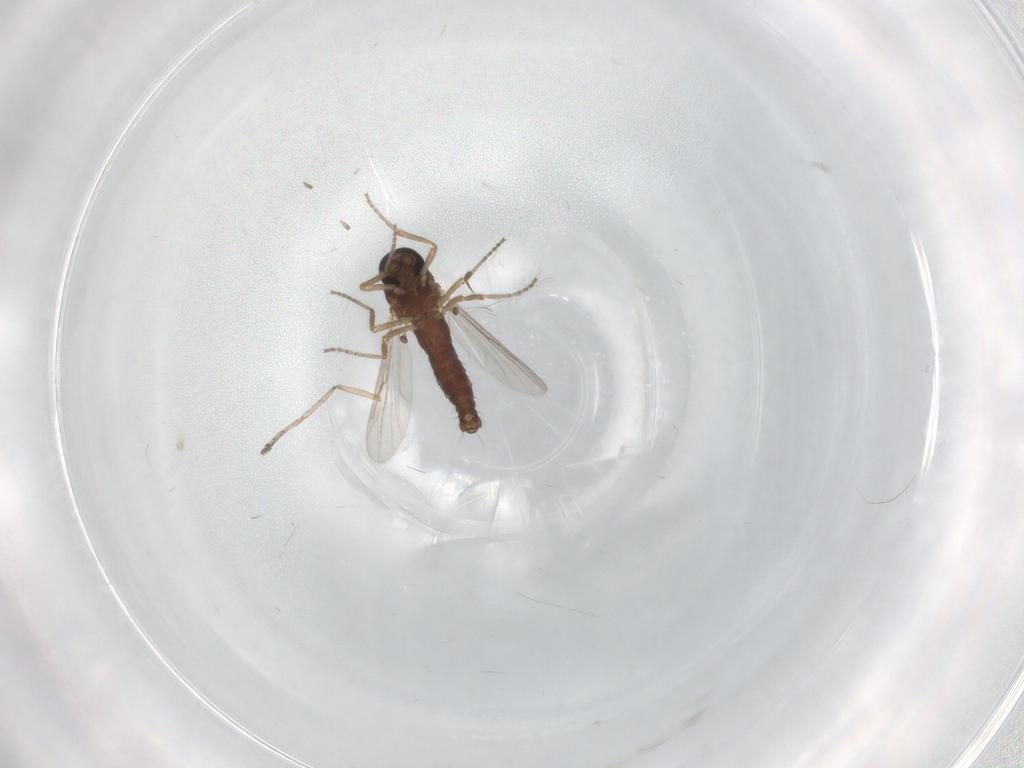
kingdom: Animalia
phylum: Arthropoda
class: Insecta
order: Diptera
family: Ceratopogonidae
